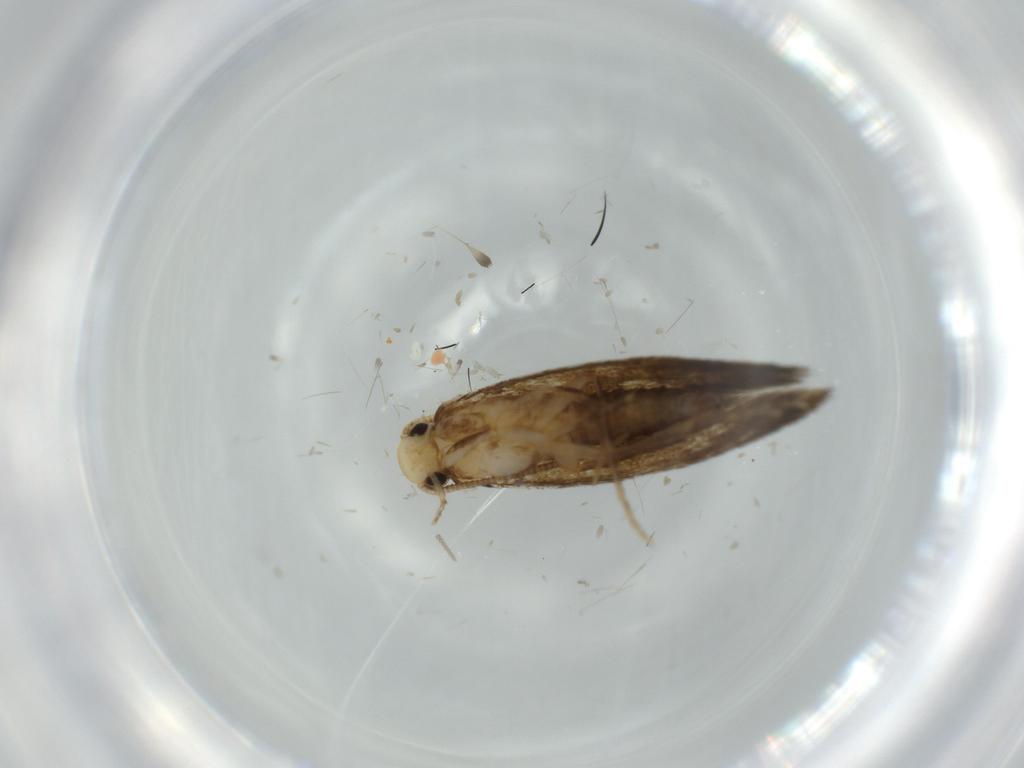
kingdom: Animalia
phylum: Arthropoda
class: Insecta
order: Lepidoptera
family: Tineidae
